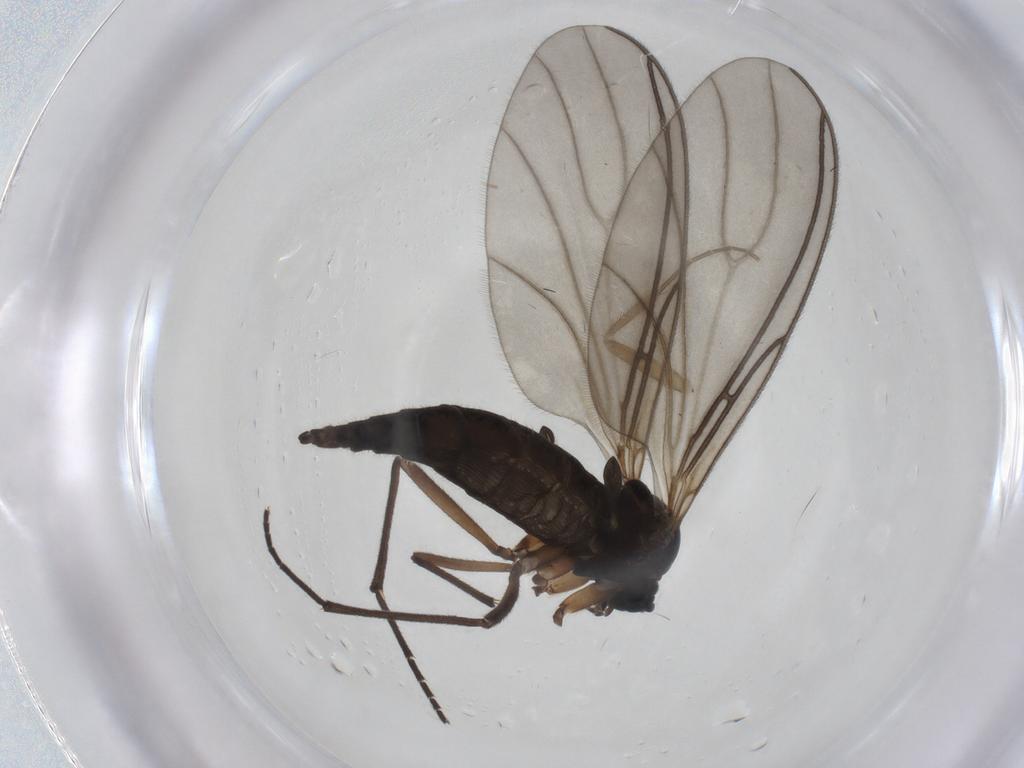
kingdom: Animalia
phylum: Arthropoda
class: Insecta
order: Diptera
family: Sciaridae
